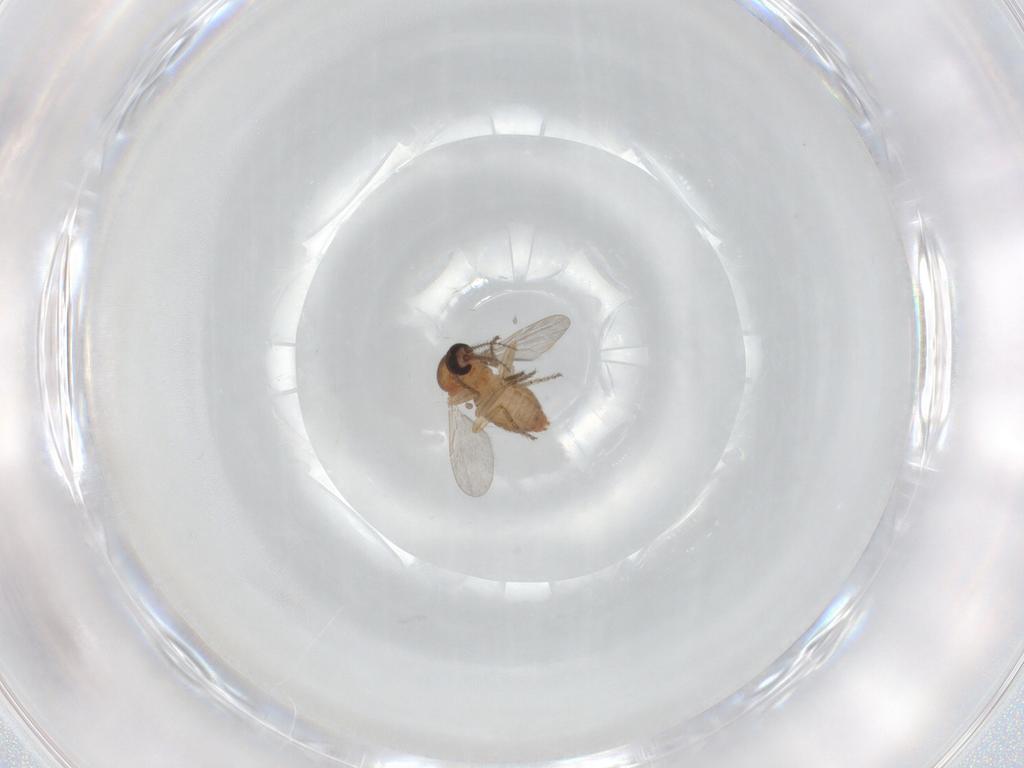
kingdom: Animalia
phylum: Arthropoda
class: Insecta
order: Diptera
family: Ceratopogonidae
